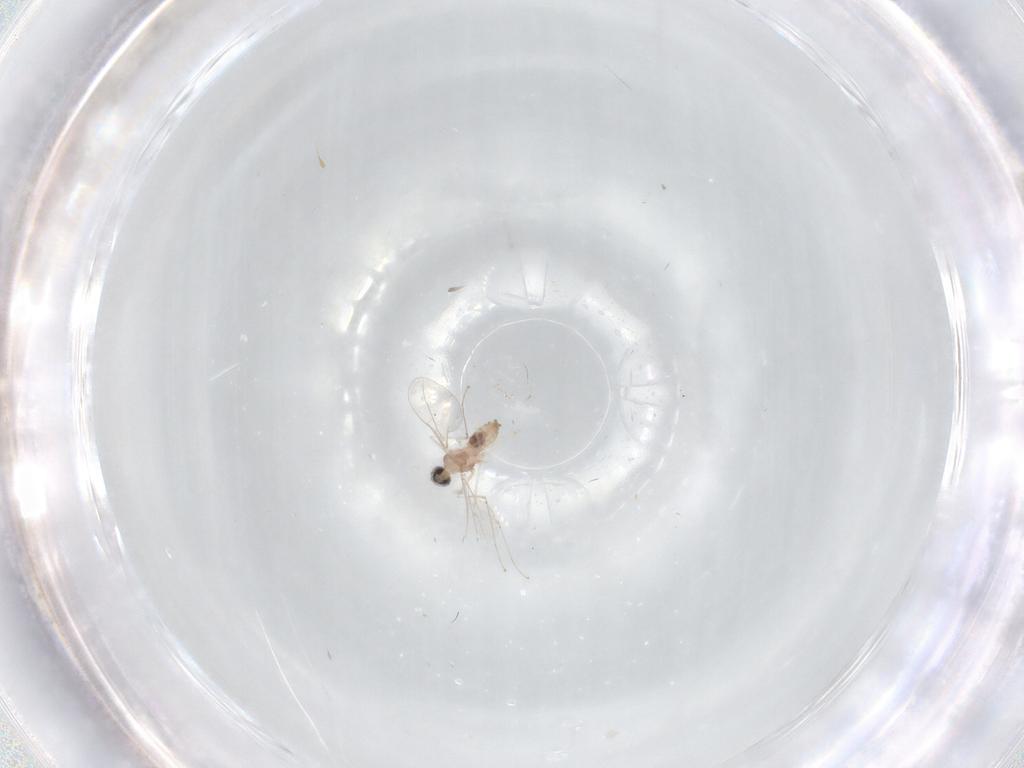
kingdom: Animalia
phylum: Arthropoda
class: Insecta
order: Diptera
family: Cecidomyiidae
